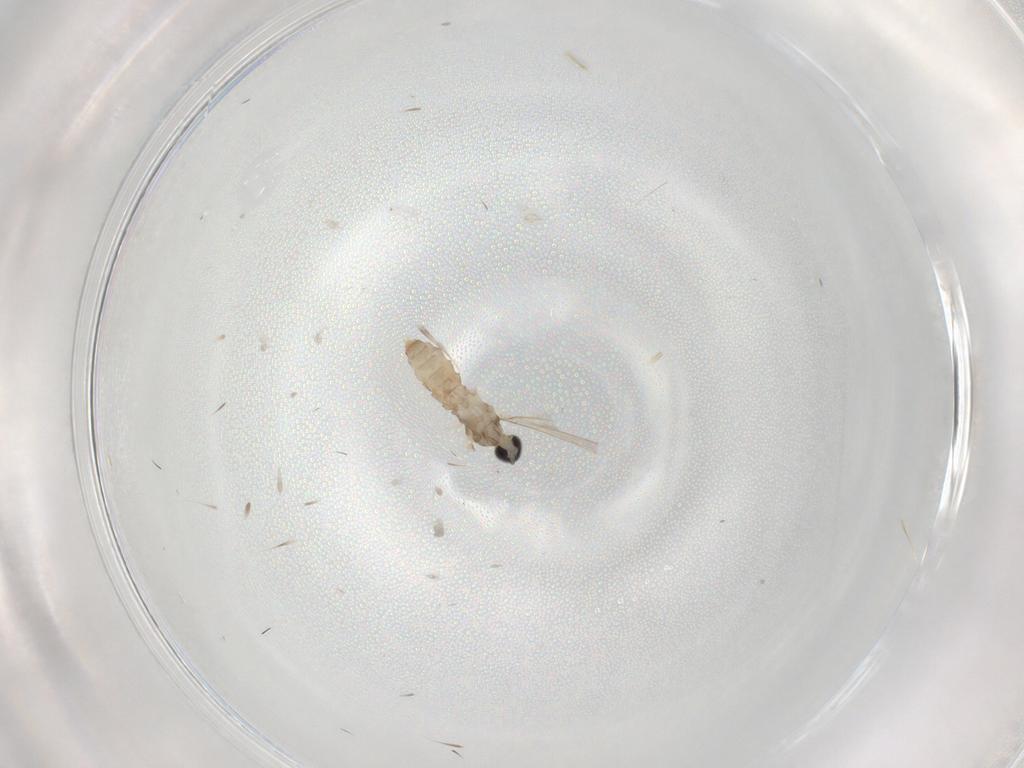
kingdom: Animalia
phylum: Arthropoda
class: Insecta
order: Diptera
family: Cecidomyiidae
